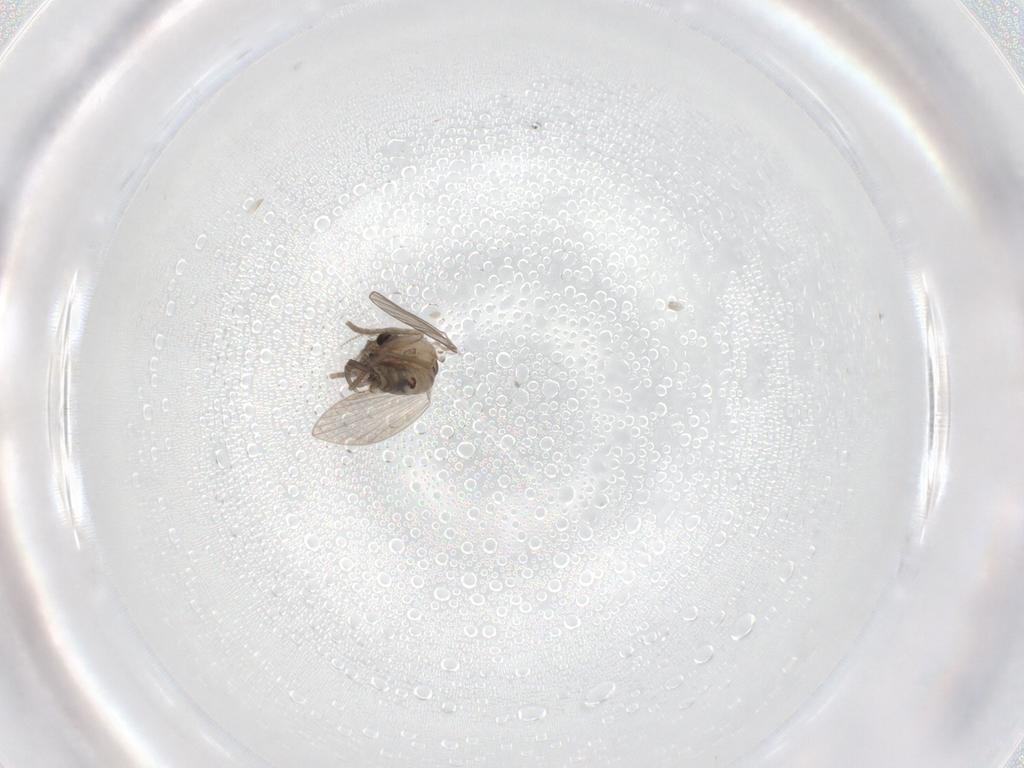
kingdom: Animalia
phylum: Arthropoda
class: Insecta
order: Diptera
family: Psychodidae
